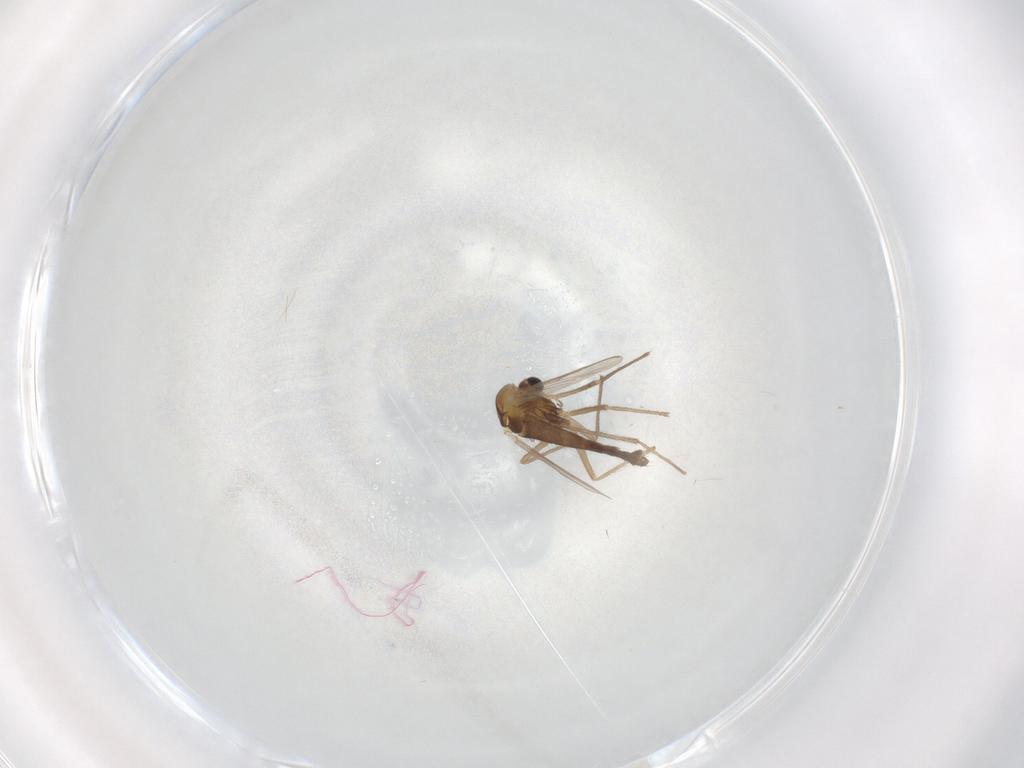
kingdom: Animalia
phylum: Arthropoda
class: Insecta
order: Diptera
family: Chironomidae
